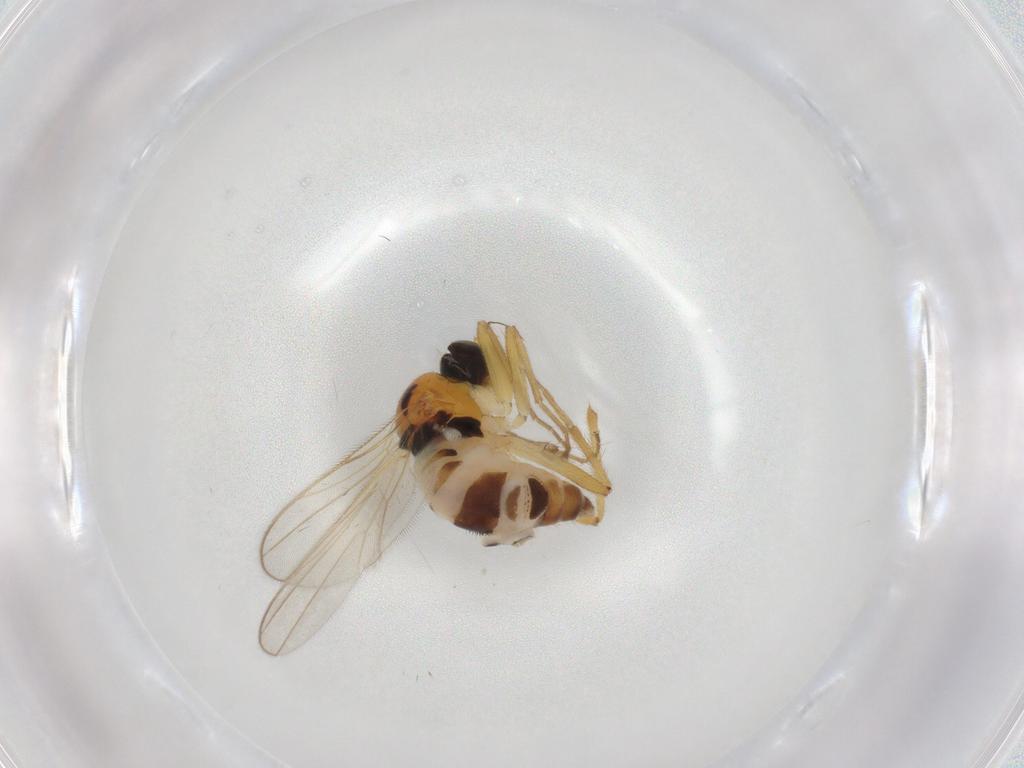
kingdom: Animalia
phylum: Arthropoda
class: Insecta
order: Diptera
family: Hybotidae
